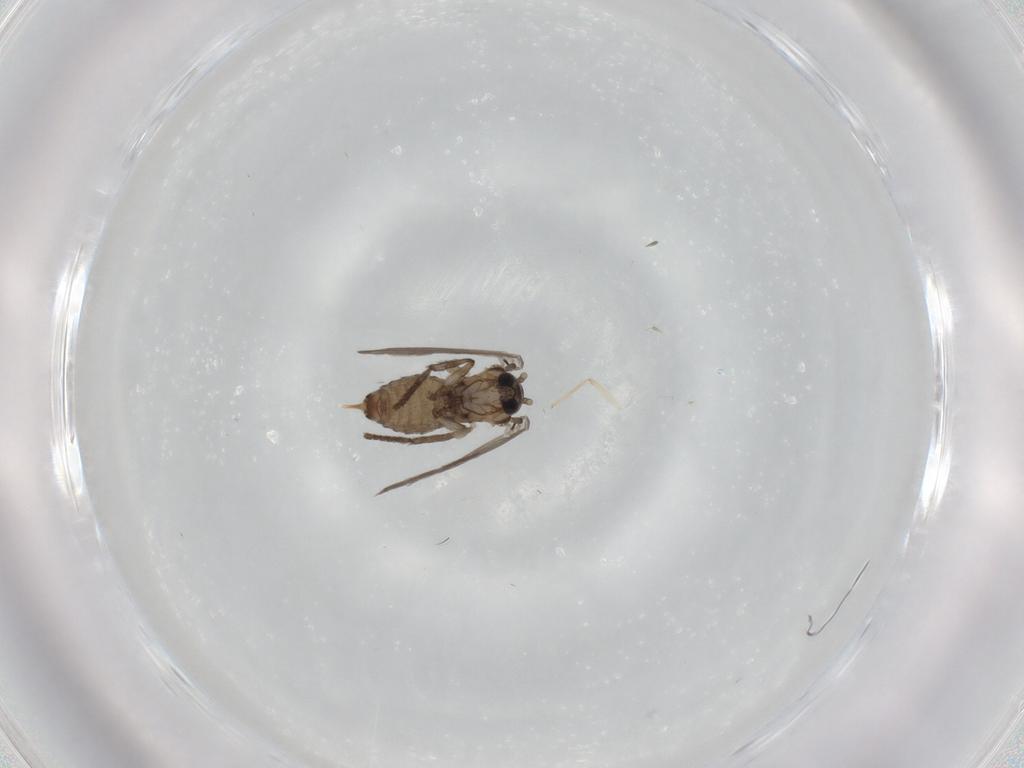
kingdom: Animalia
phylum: Arthropoda
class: Insecta
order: Diptera
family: Psychodidae
